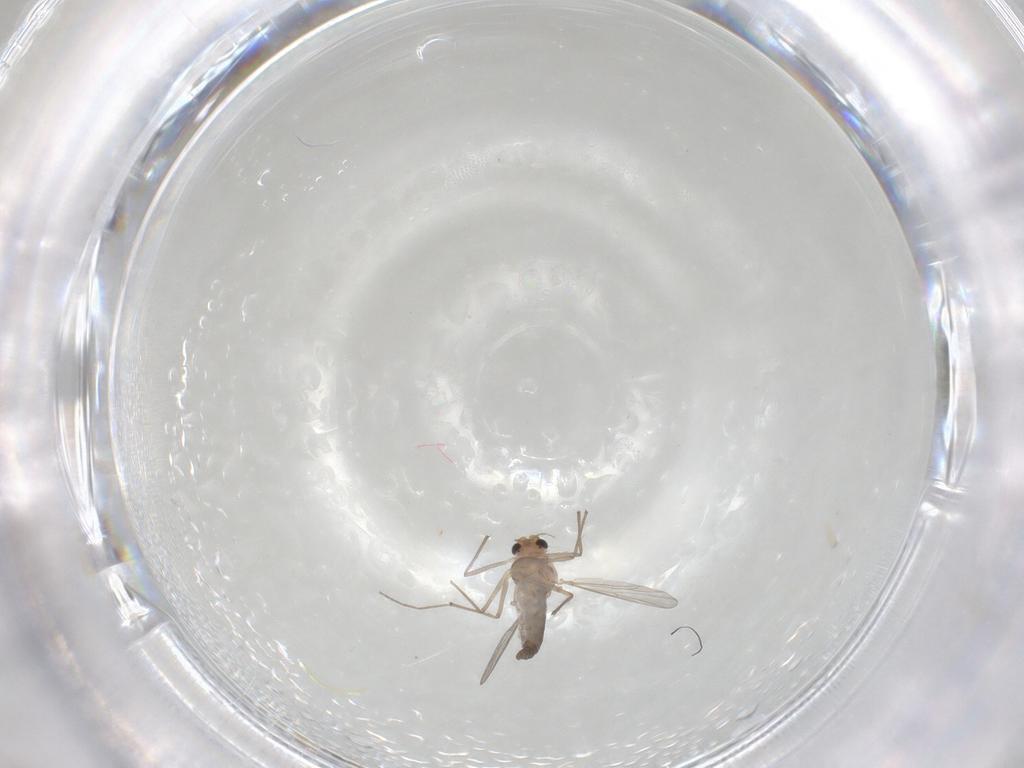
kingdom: Animalia
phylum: Arthropoda
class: Insecta
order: Diptera
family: Chironomidae
